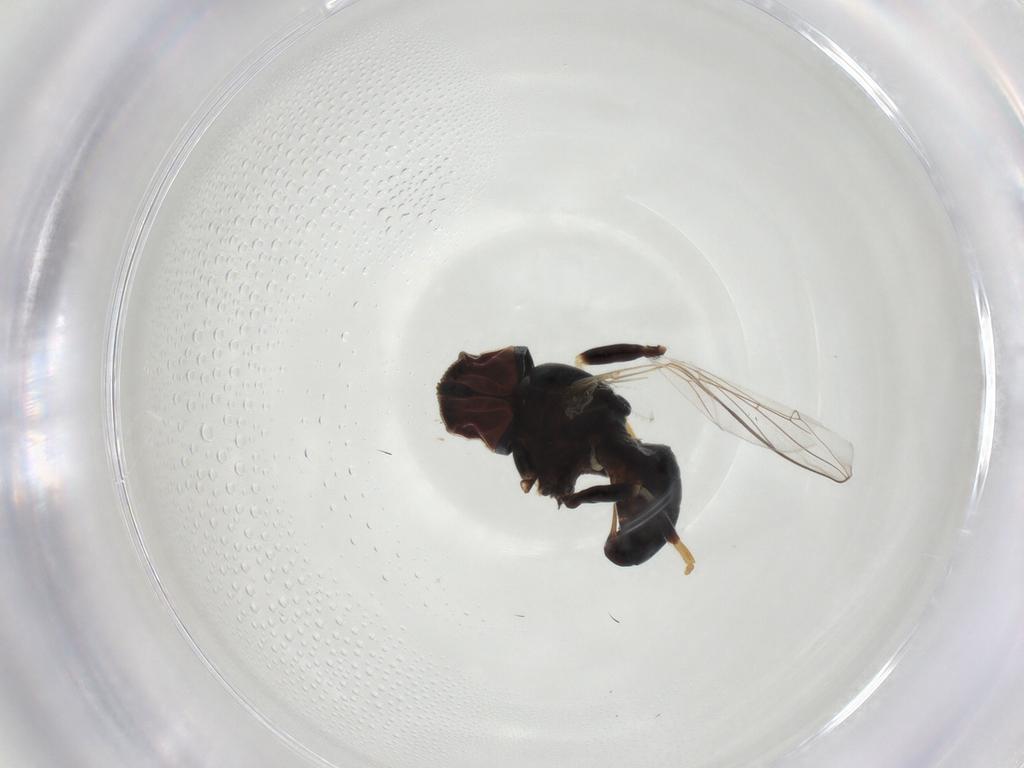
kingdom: Animalia
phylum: Arthropoda
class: Insecta
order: Diptera
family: Pipunculidae
